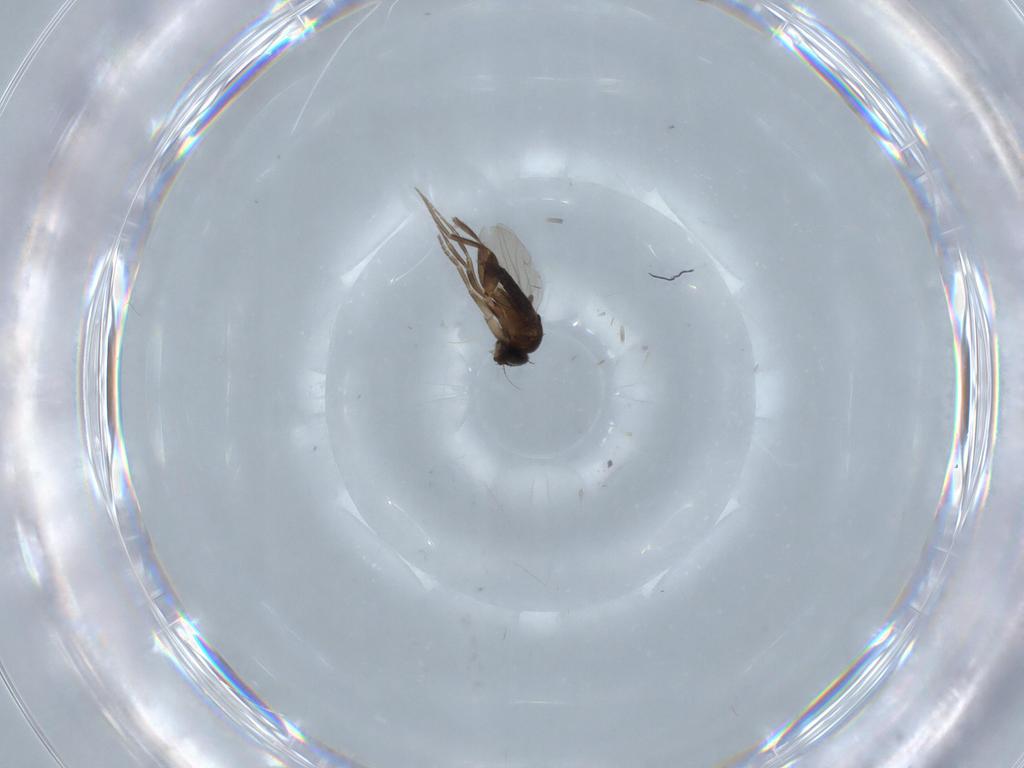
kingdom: Animalia
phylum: Arthropoda
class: Insecta
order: Diptera
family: Phoridae
